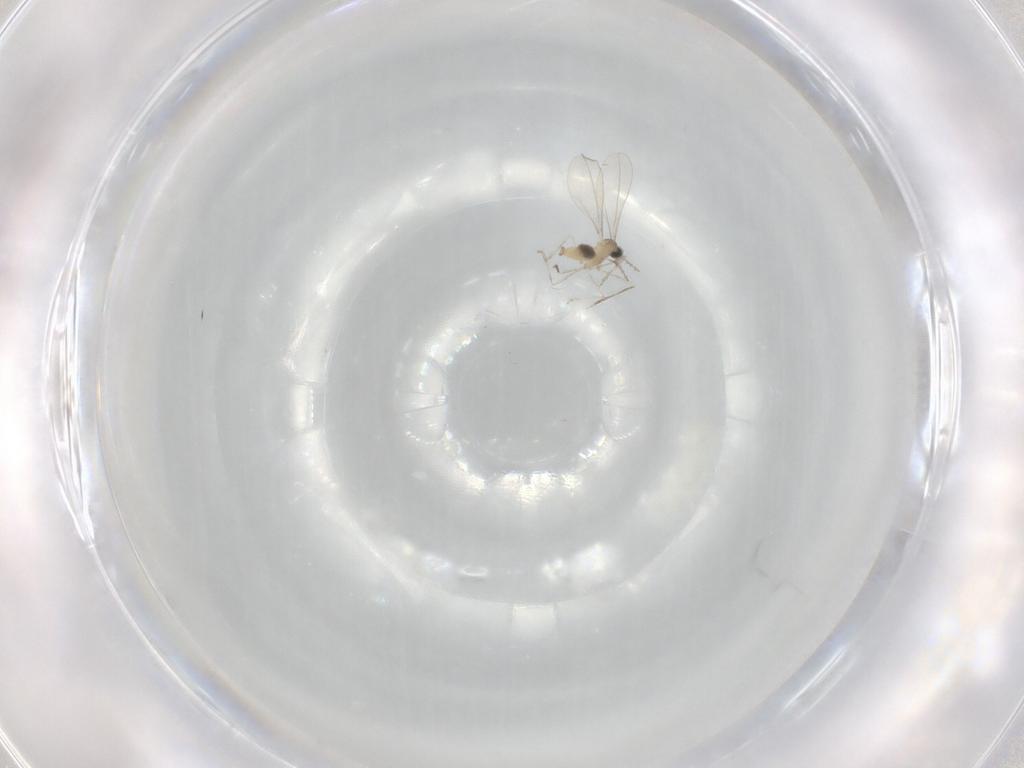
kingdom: Animalia
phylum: Arthropoda
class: Insecta
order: Diptera
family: Cecidomyiidae
